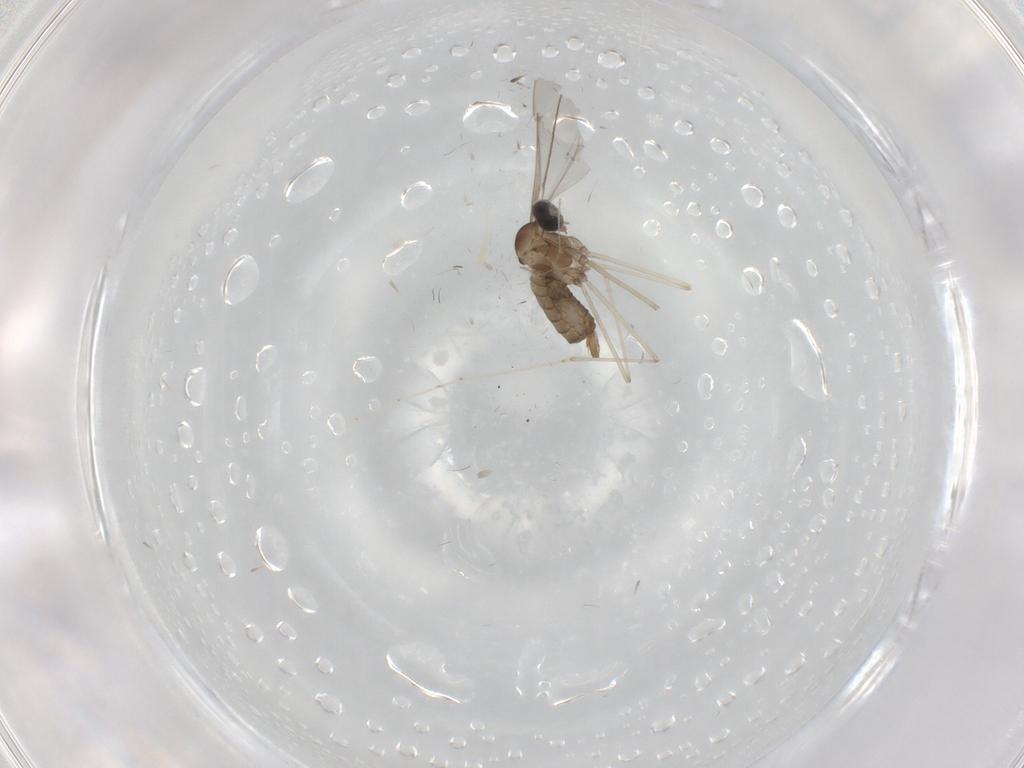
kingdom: Animalia
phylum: Arthropoda
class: Insecta
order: Diptera
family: Cecidomyiidae
